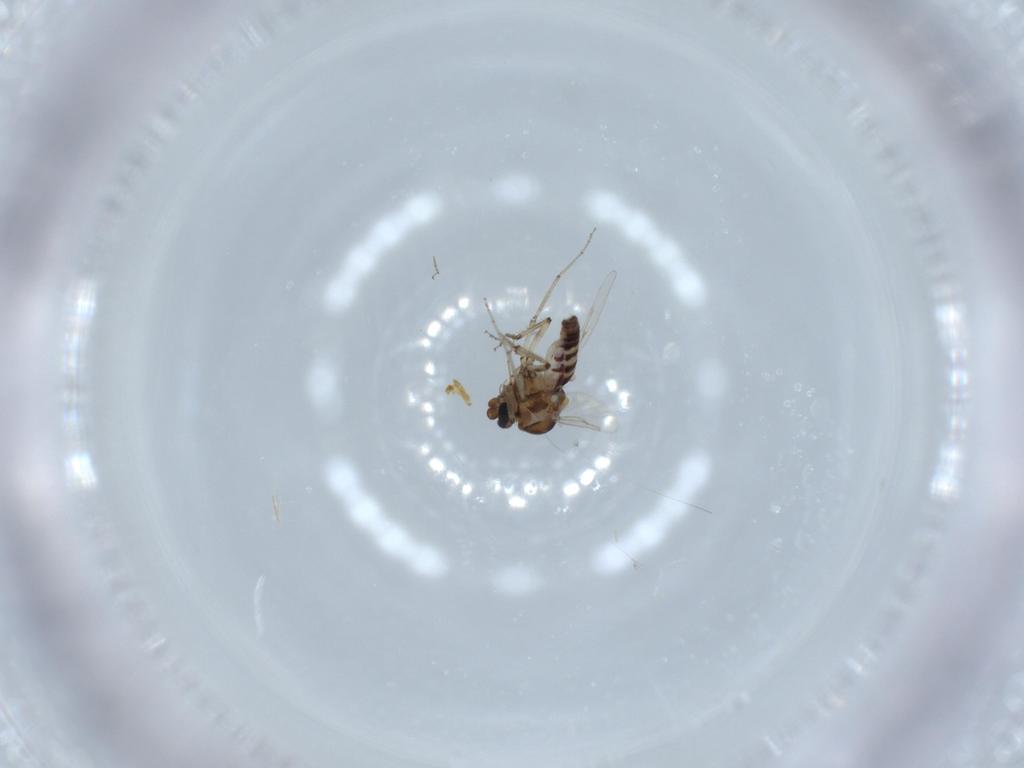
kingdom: Animalia
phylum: Arthropoda
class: Insecta
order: Diptera
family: Ceratopogonidae
